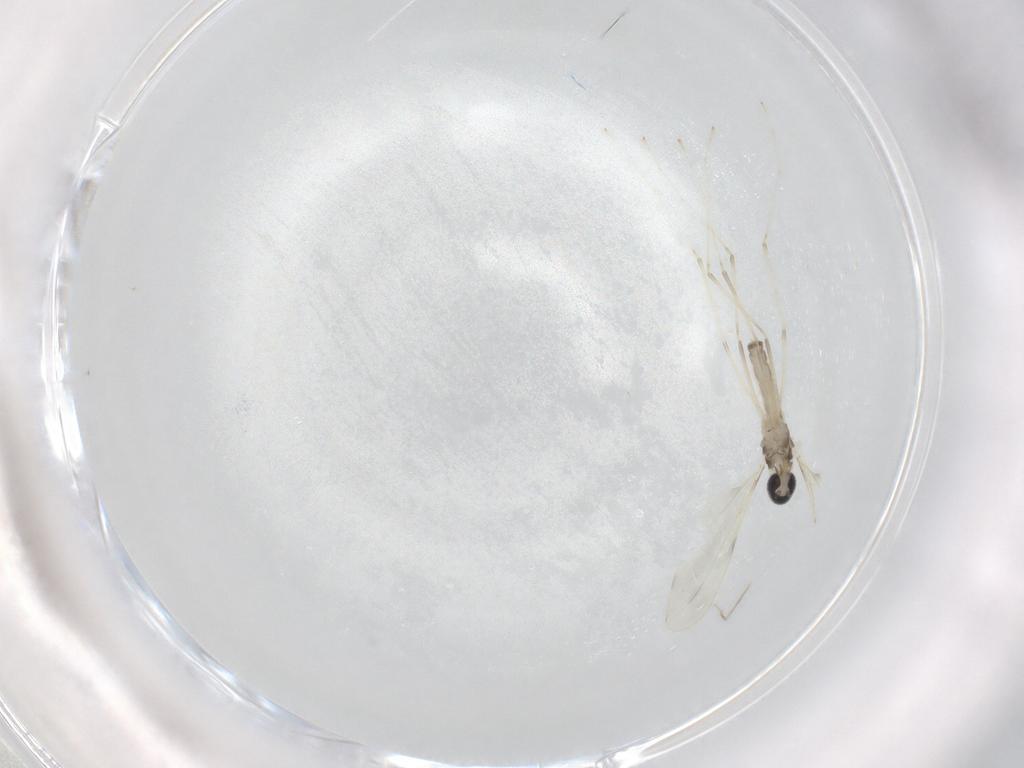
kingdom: Animalia
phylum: Arthropoda
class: Insecta
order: Diptera
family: Cecidomyiidae
